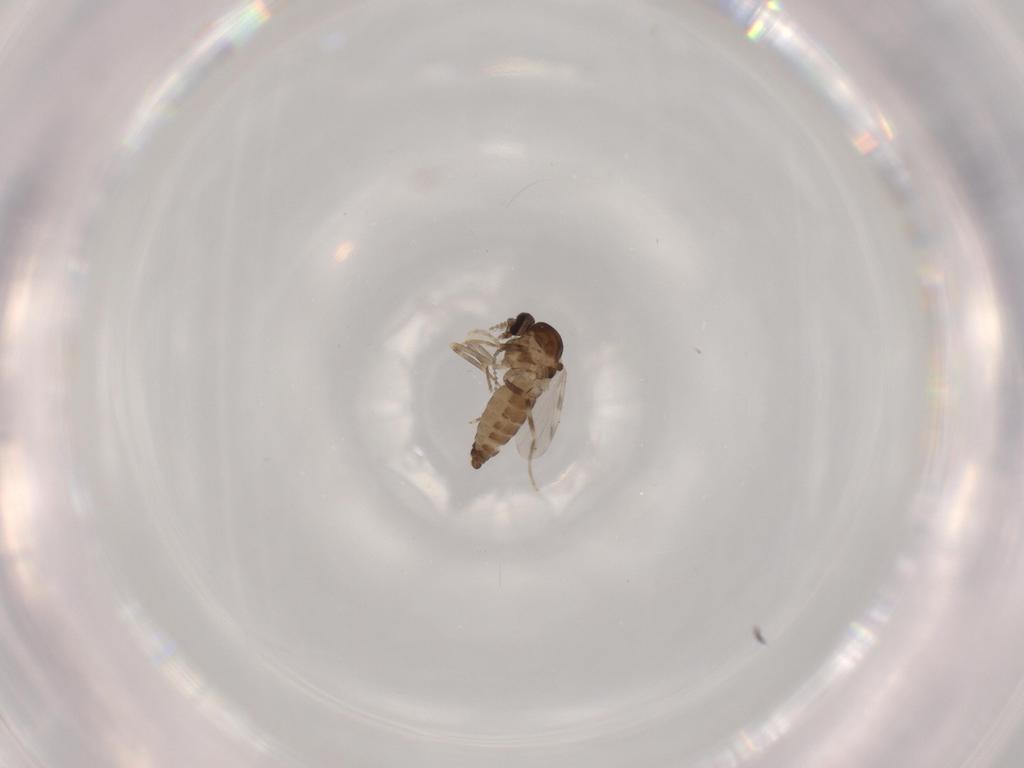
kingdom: Animalia
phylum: Arthropoda
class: Insecta
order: Diptera
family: Ceratopogonidae
